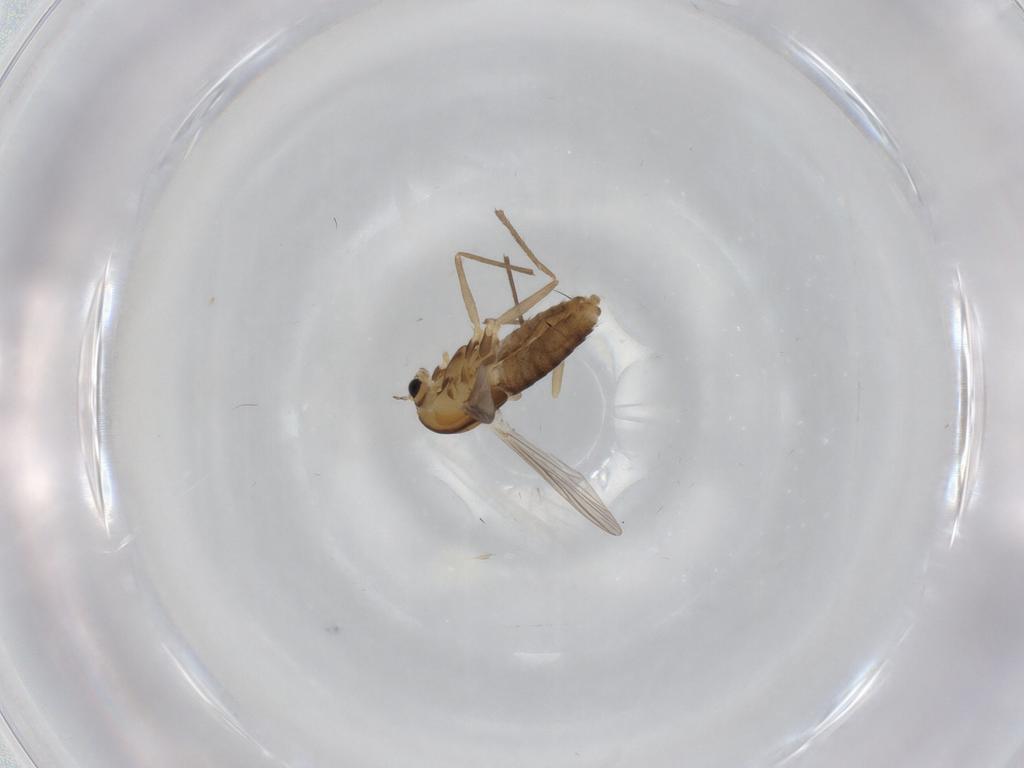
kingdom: Animalia
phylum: Arthropoda
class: Insecta
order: Diptera
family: Chironomidae
